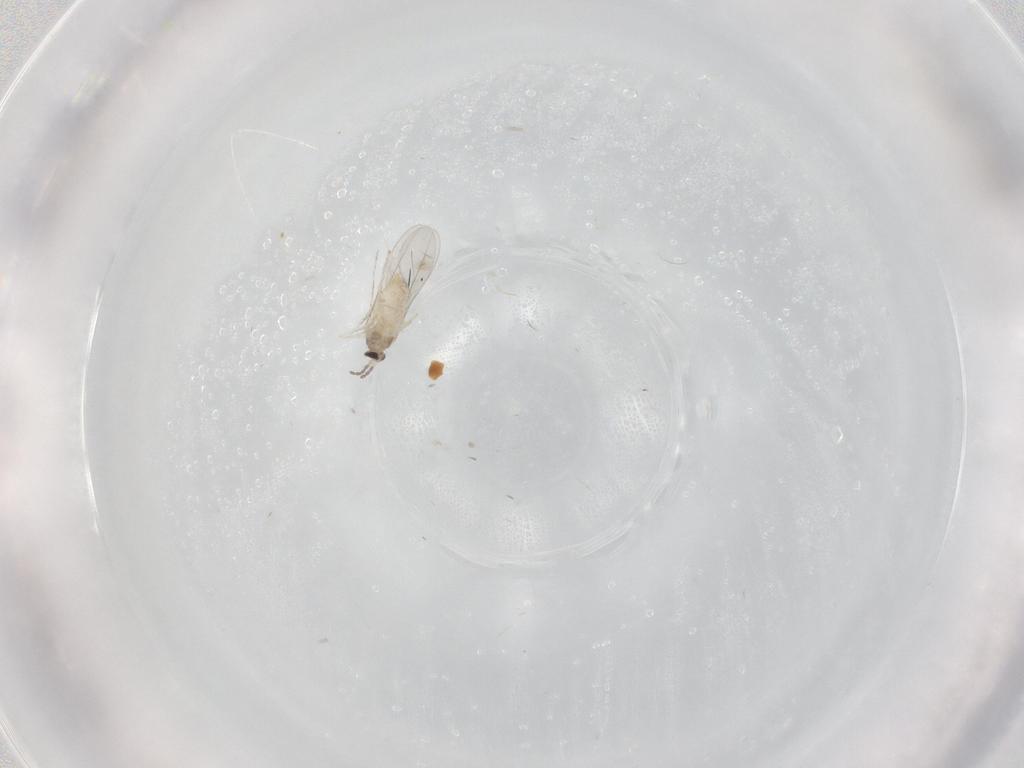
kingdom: Animalia
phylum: Arthropoda
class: Insecta
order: Diptera
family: Cecidomyiidae
